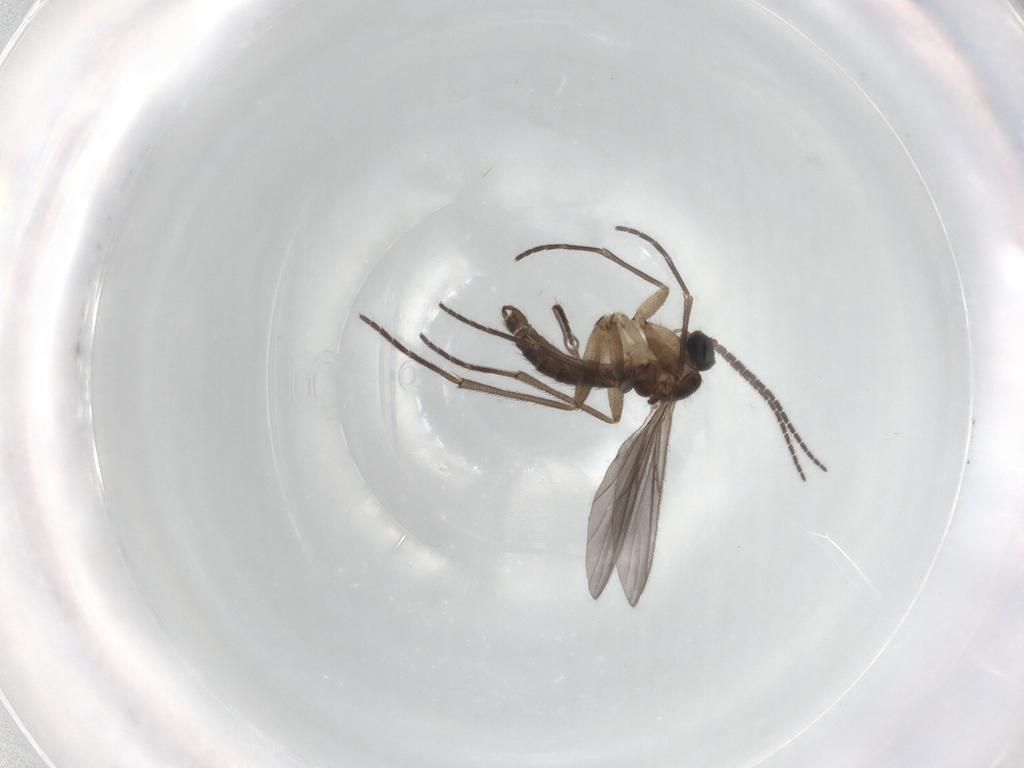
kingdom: Animalia
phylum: Arthropoda
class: Insecta
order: Diptera
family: Sciaridae
